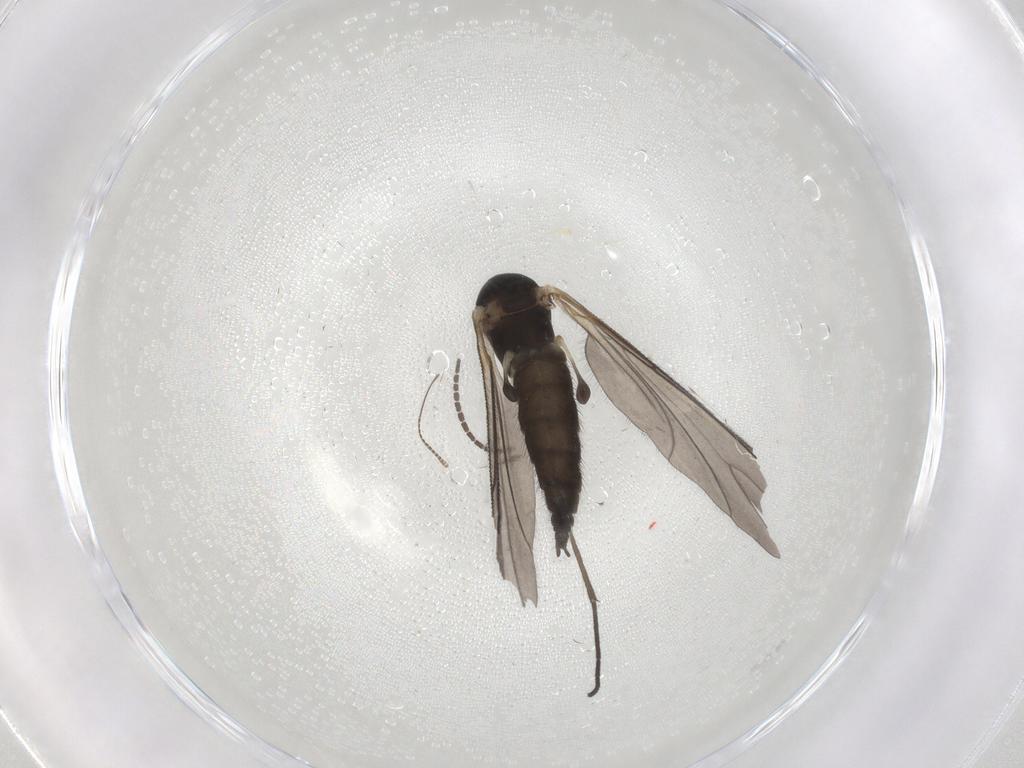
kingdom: Animalia
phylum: Arthropoda
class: Insecta
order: Diptera
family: Sciaridae
